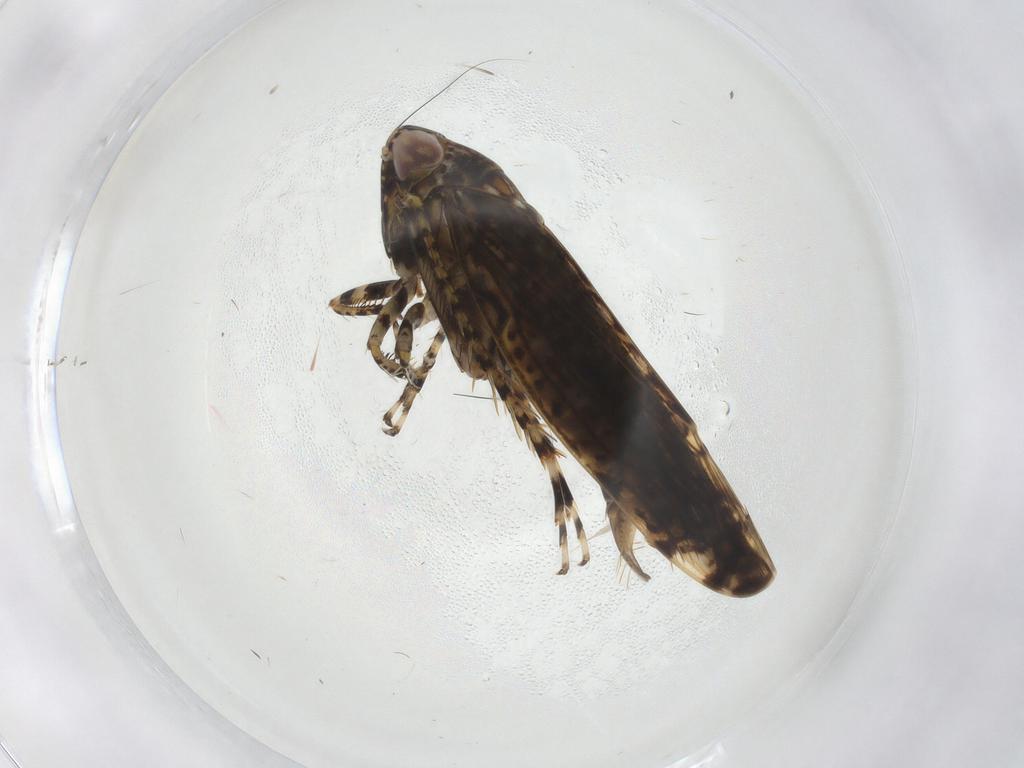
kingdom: Animalia
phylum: Arthropoda
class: Insecta
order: Hemiptera
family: Cicadellidae
